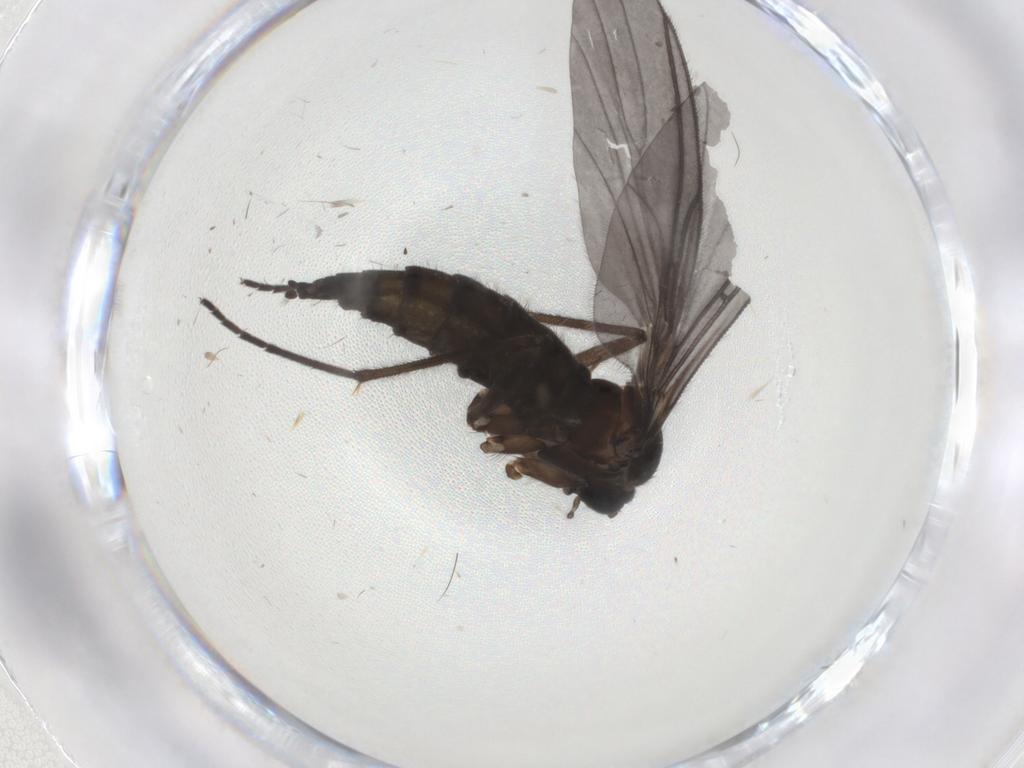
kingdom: Animalia
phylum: Arthropoda
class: Insecta
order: Diptera
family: Sciaridae
